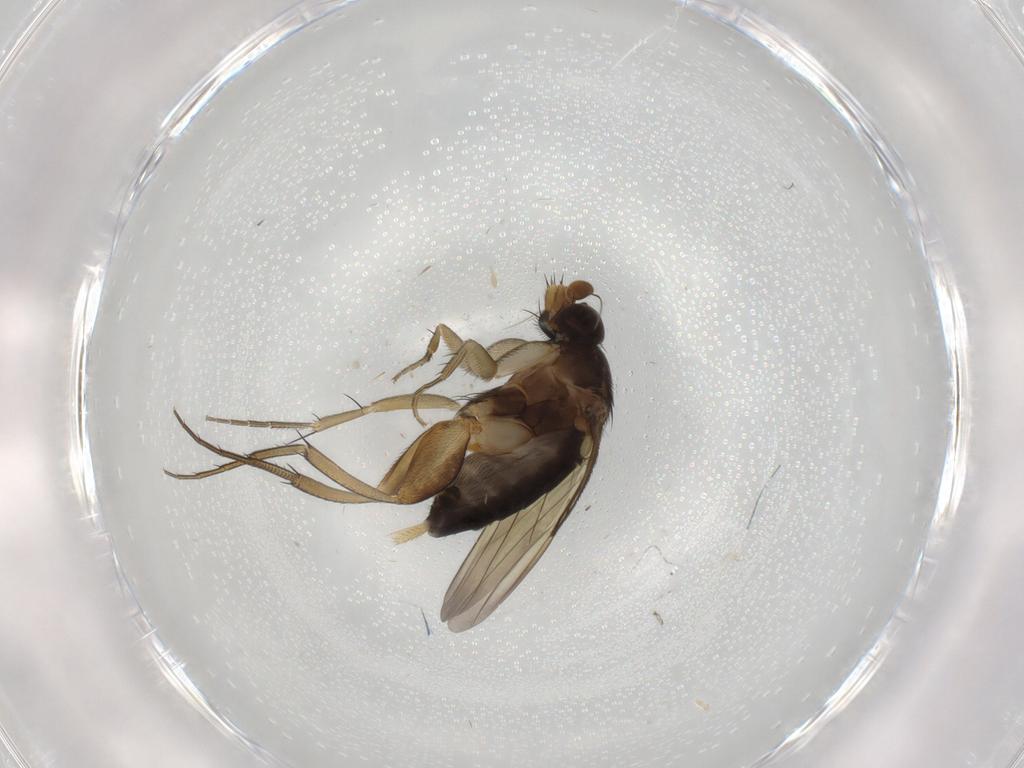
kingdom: Animalia
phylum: Arthropoda
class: Insecta
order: Diptera
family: Phoridae
